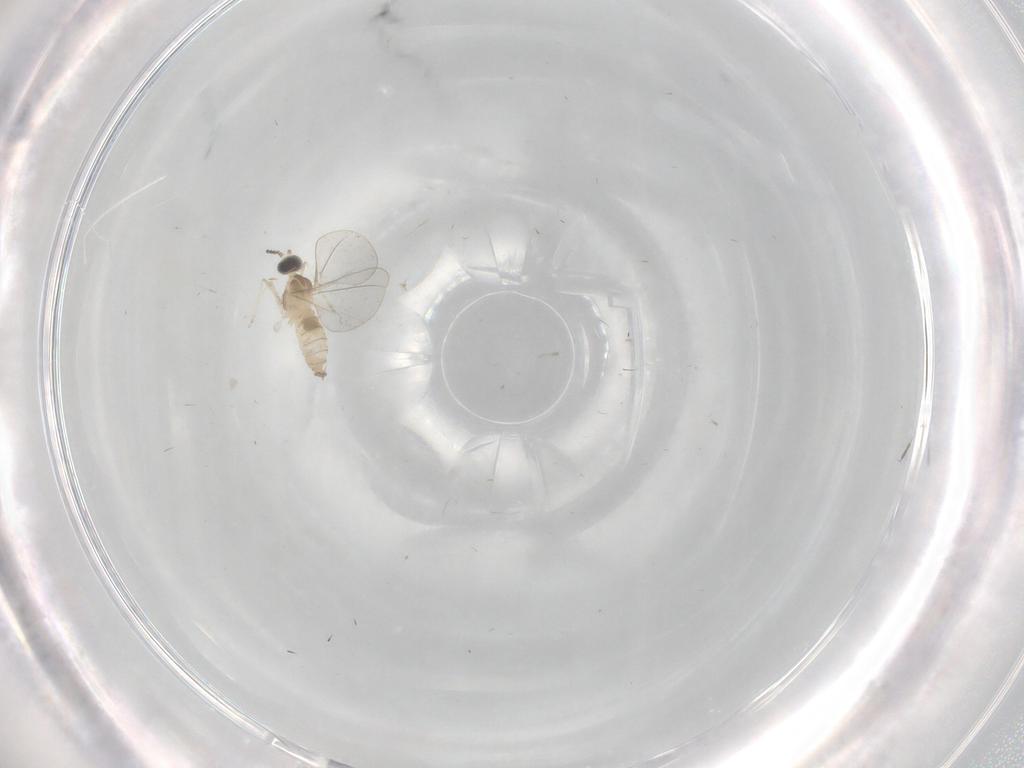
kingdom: Animalia
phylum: Arthropoda
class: Insecta
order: Diptera
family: Cecidomyiidae
